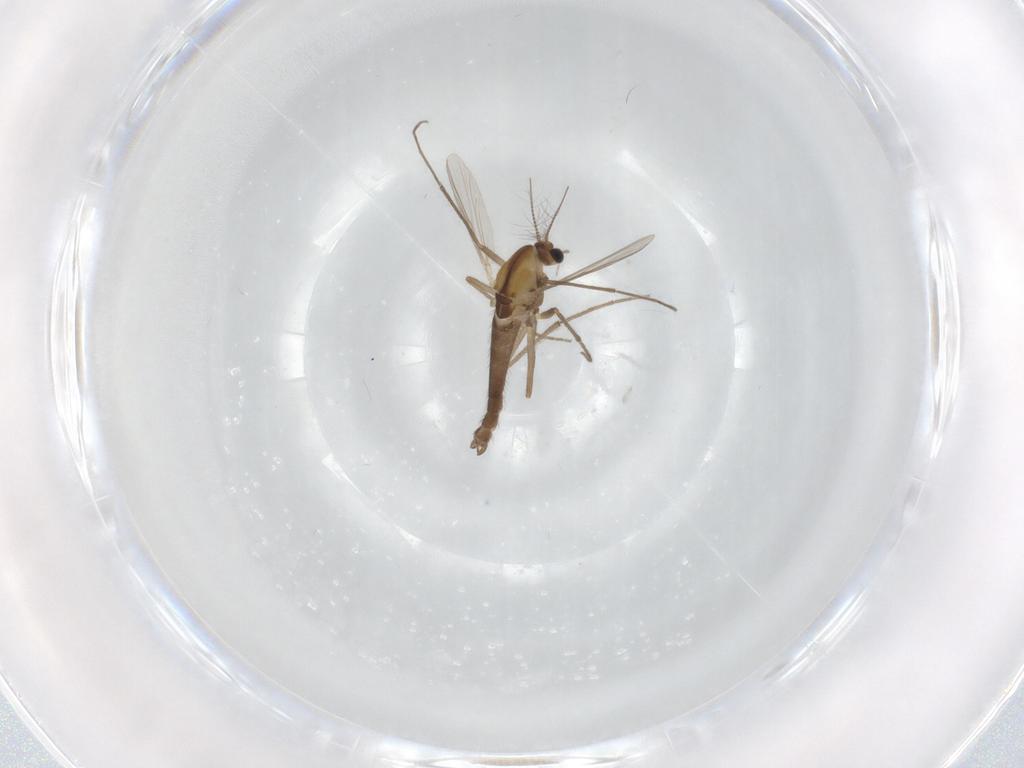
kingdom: Animalia
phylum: Arthropoda
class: Insecta
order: Diptera
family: Chironomidae
